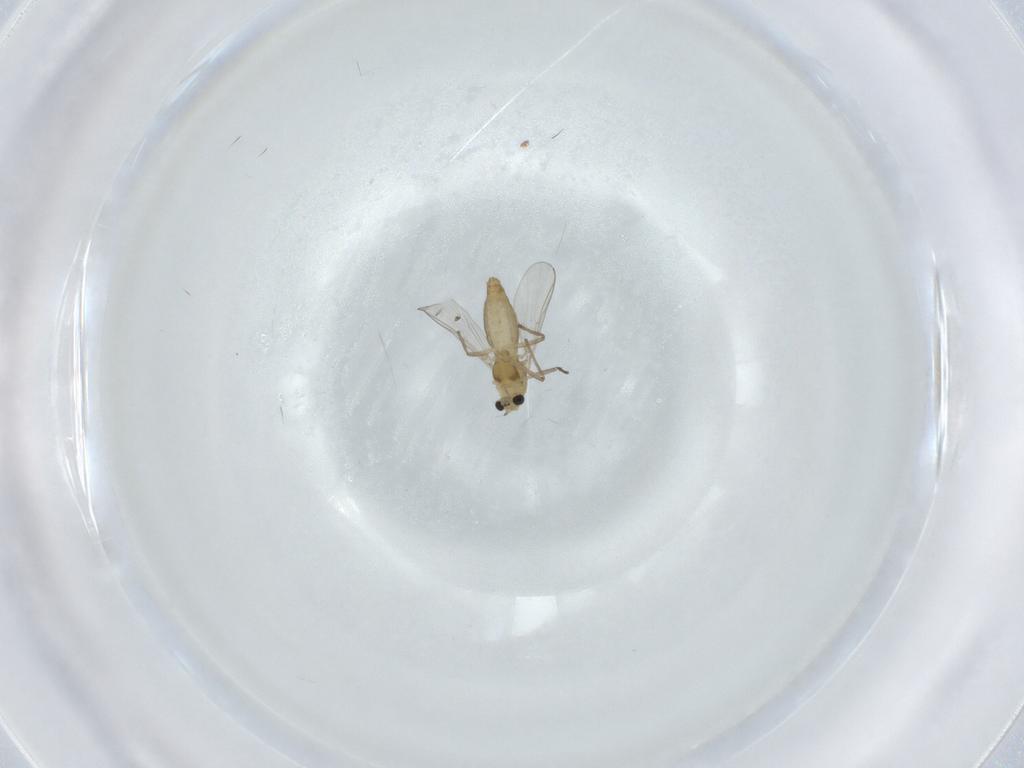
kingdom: Animalia
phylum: Arthropoda
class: Insecta
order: Diptera
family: Chironomidae
